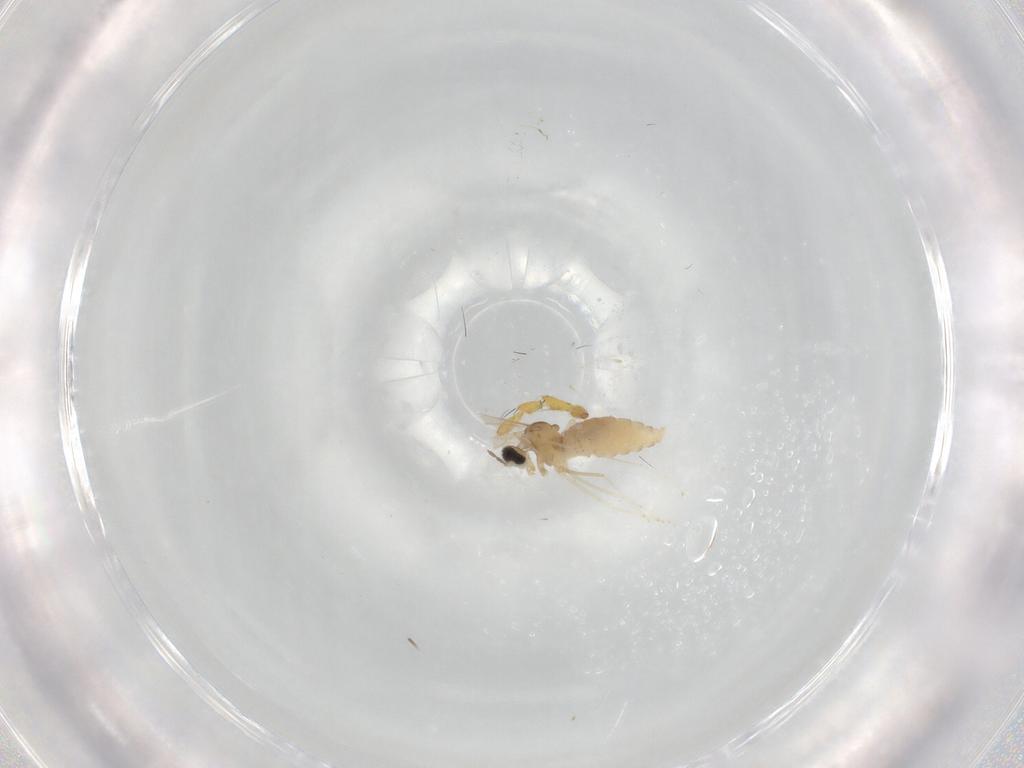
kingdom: Animalia
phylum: Arthropoda
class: Insecta
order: Diptera
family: Cecidomyiidae
